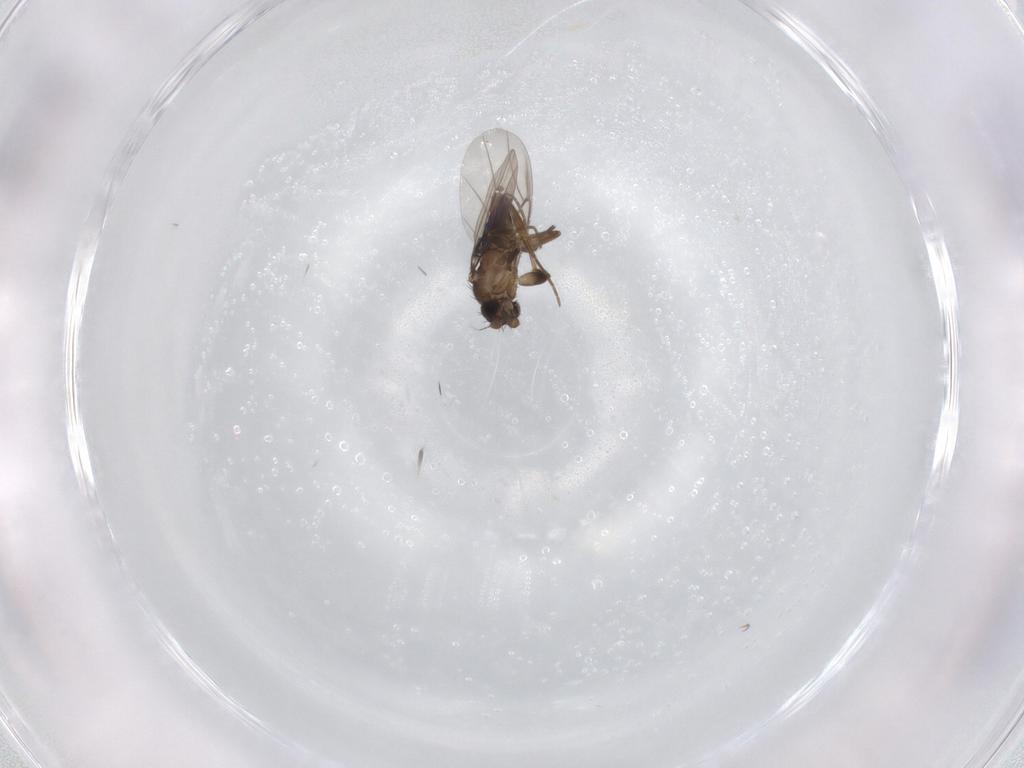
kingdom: Animalia
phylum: Arthropoda
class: Insecta
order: Diptera
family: Phoridae
